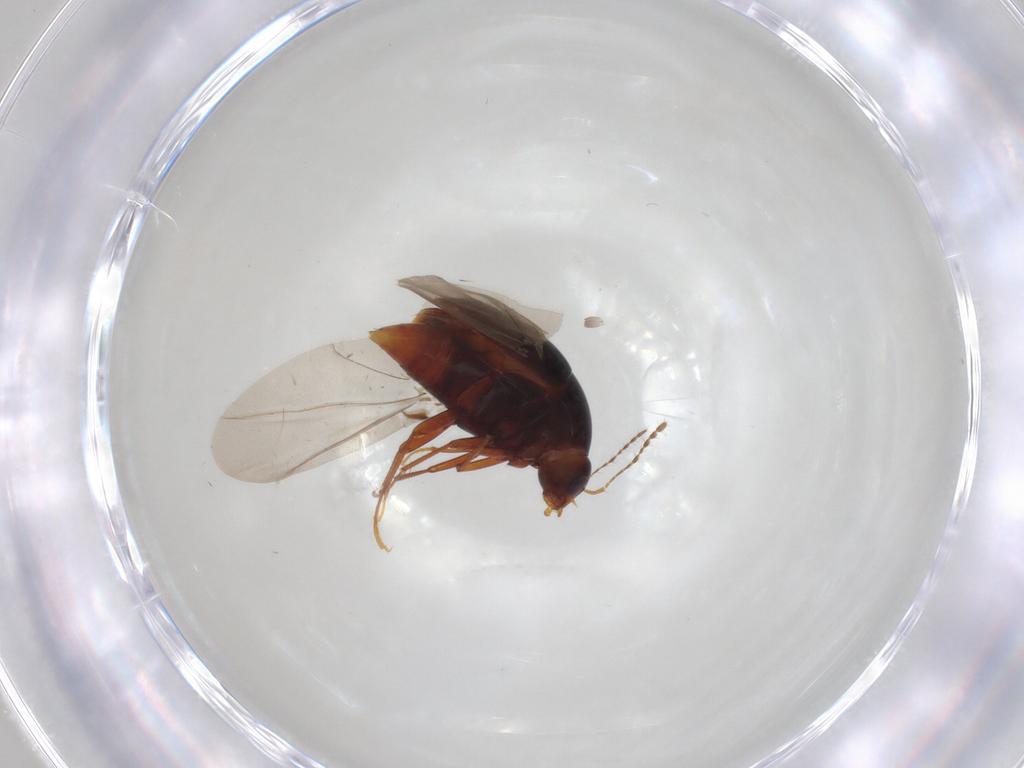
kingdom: Animalia
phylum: Arthropoda
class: Insecta
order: Coleoptera
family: Staphylinidae
